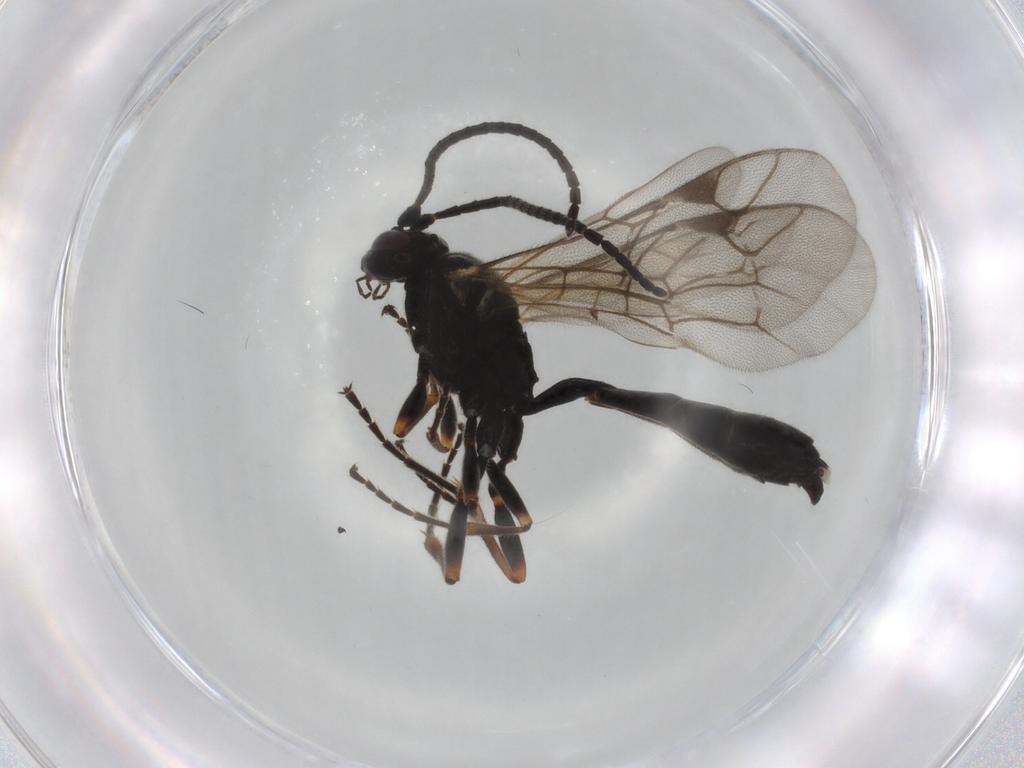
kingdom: Animalia
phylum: Arthropoda
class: Insecta
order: Hymenoptera
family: Ichneumonidae
